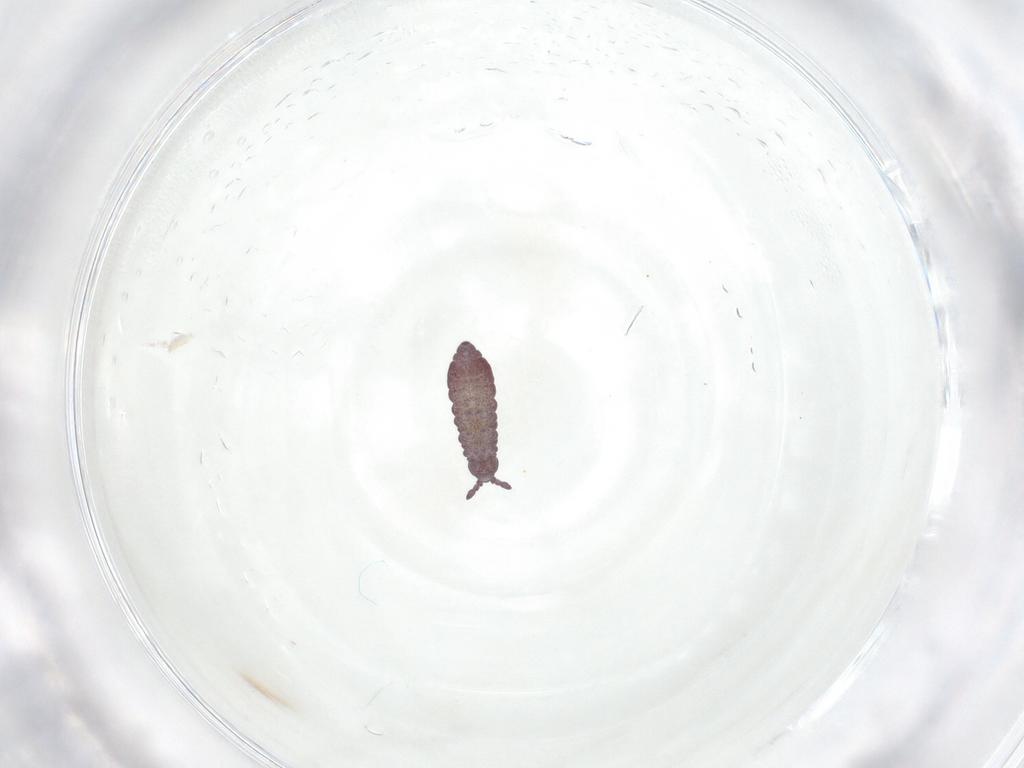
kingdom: Animalia
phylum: Arthropoda
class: Collembola
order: Poduromorpha
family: Hypogastruridae
